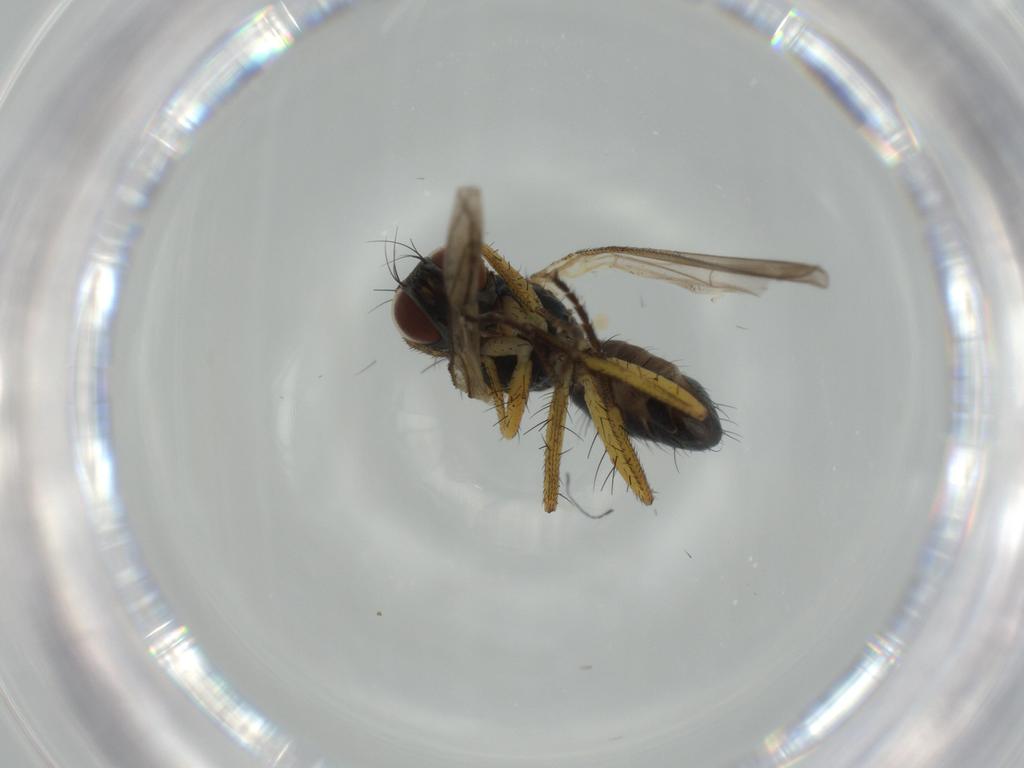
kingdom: Animalia
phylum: Arthropoda
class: Insecta
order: Diptera
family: Muscidae
